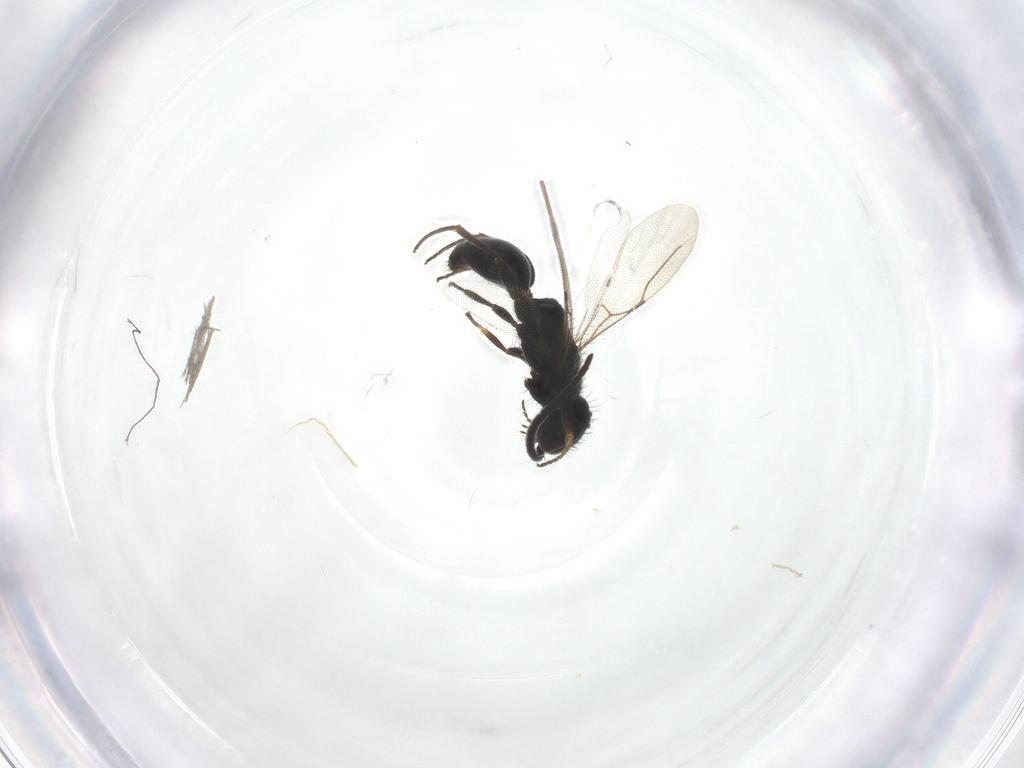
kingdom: Animalia
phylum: Arthropoda
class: Insecta
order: Hymenoptera
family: Bethylidae
